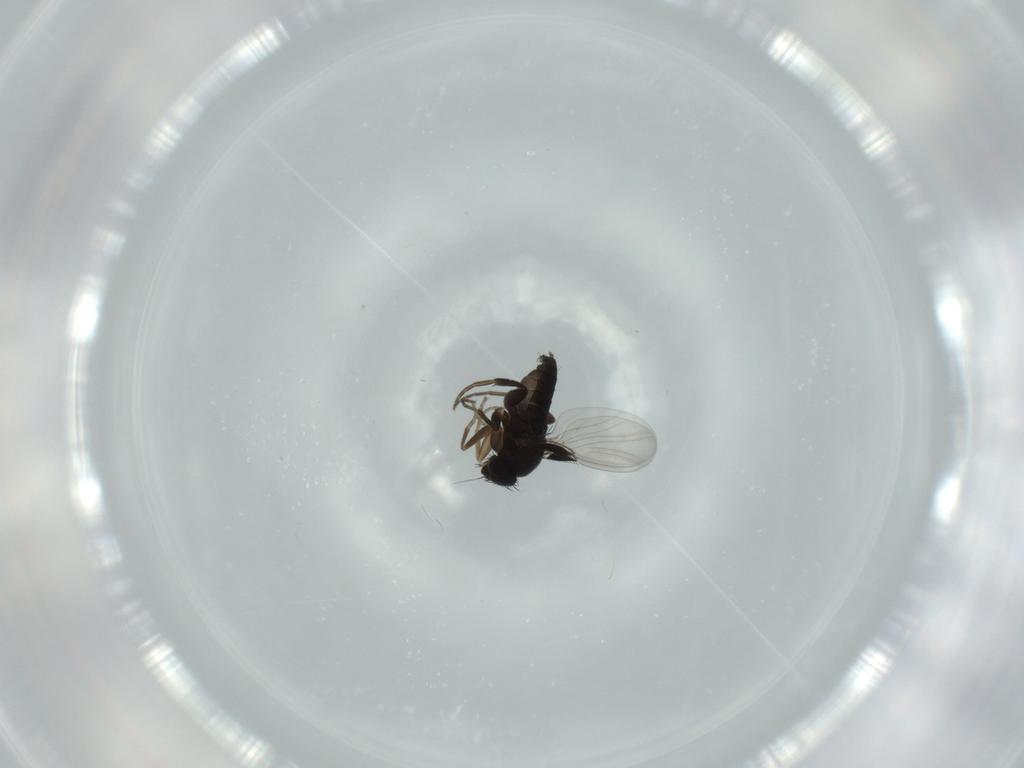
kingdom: Animalia
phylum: Arthropoda
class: Insecta
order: Diptera
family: Phoridae
